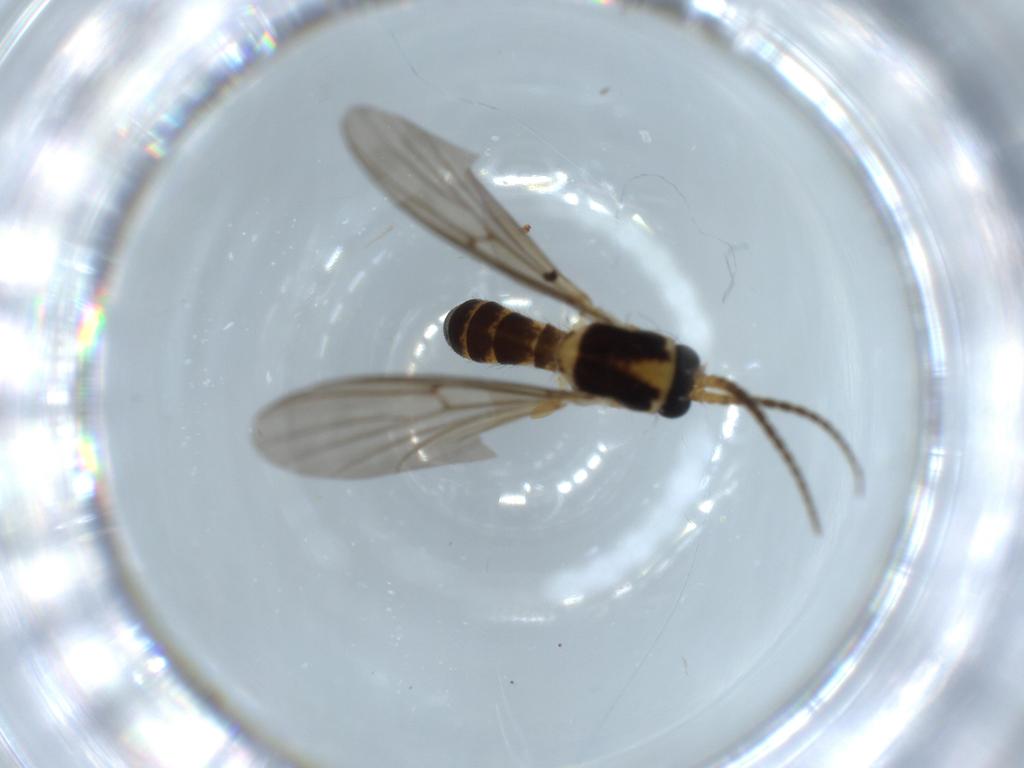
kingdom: Animalia
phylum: Arthropoda
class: Insecta
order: Diptera
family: Mycetophilidae
